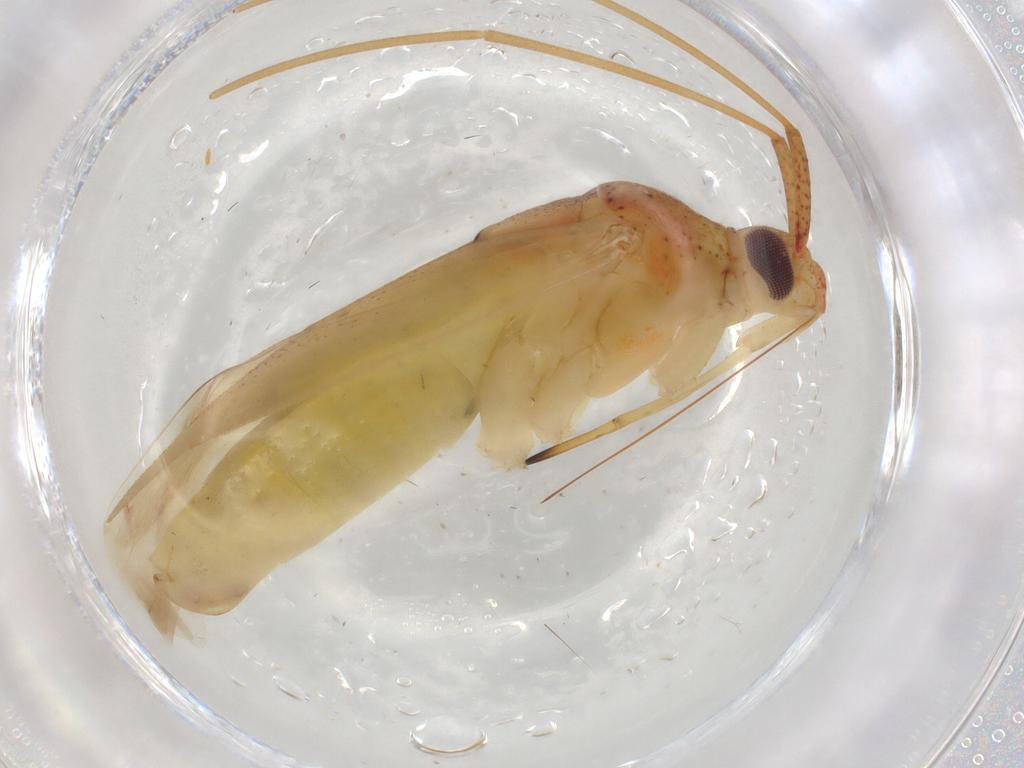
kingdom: Animalia
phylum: Arthropoda
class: Insecta
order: Hemiptera
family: Miridae
